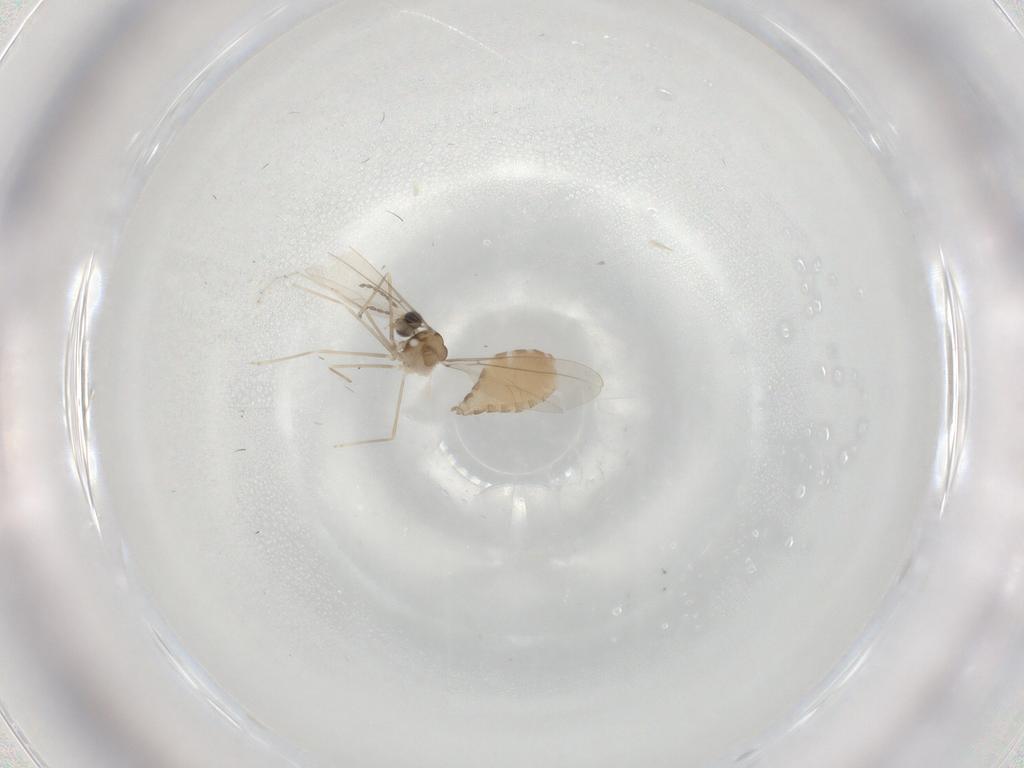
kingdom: Animalia
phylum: Arthropoda
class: Insecta
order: Diptera
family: Cecidomyiidae
